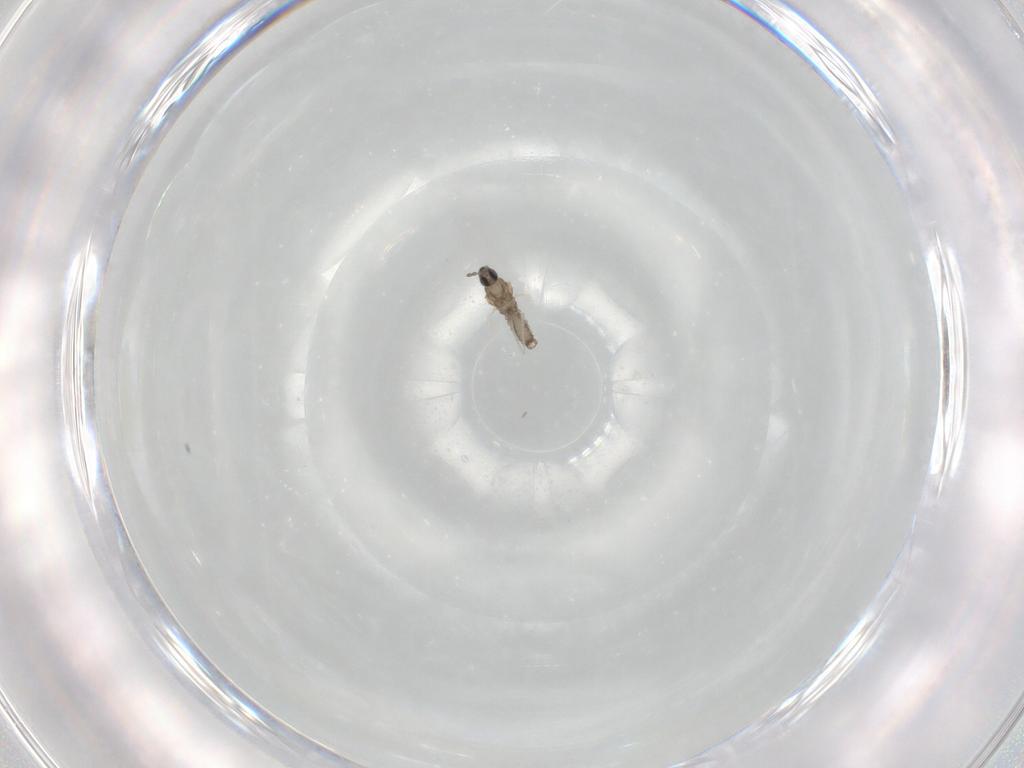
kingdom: Animalia
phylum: Arthropoda
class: Insecta
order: Diptera
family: Cecidomyiidae
